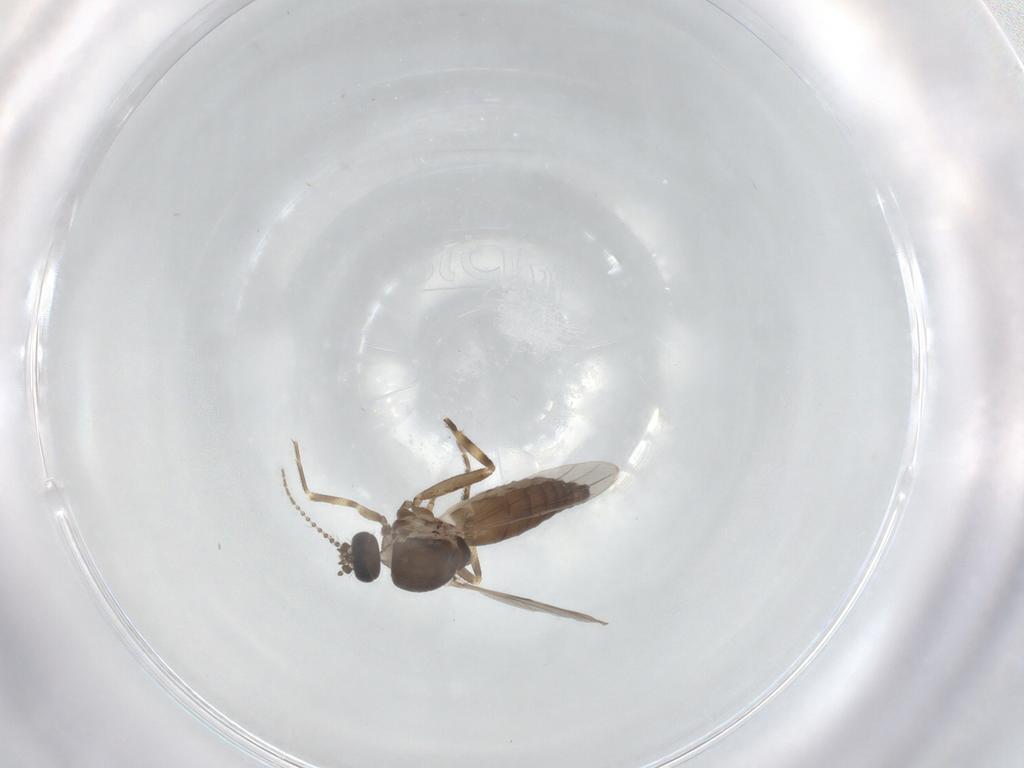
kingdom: Animalia
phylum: Arthropoda
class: Insecta
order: Diptera
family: Ceratopogonidae
